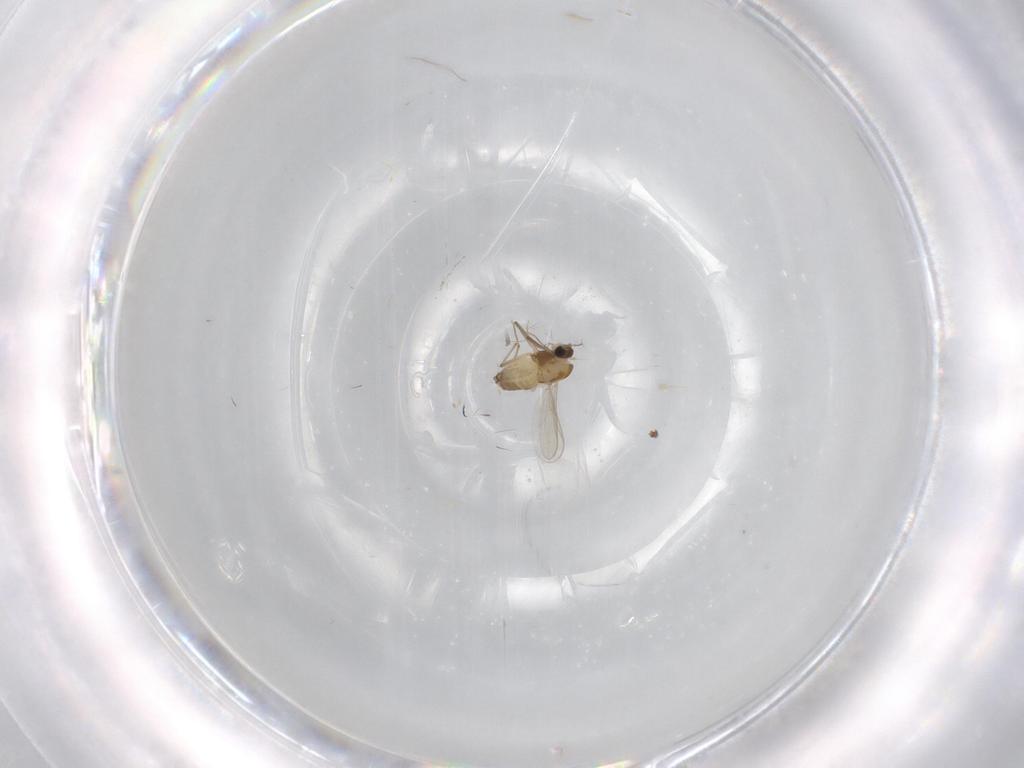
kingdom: Animalia
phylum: Arthropoda
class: Insecta
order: Diptera
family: Chironomidae
